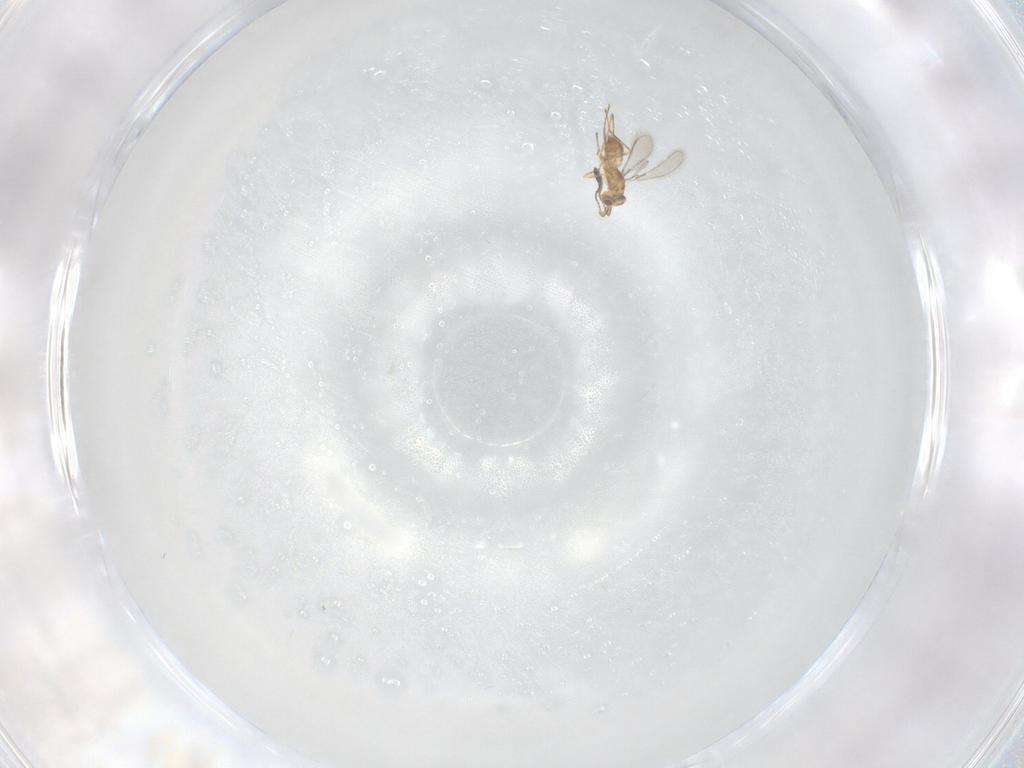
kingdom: Animalia
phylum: Arthropoda
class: Insecta
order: Hymenoptera
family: Mymaridae
